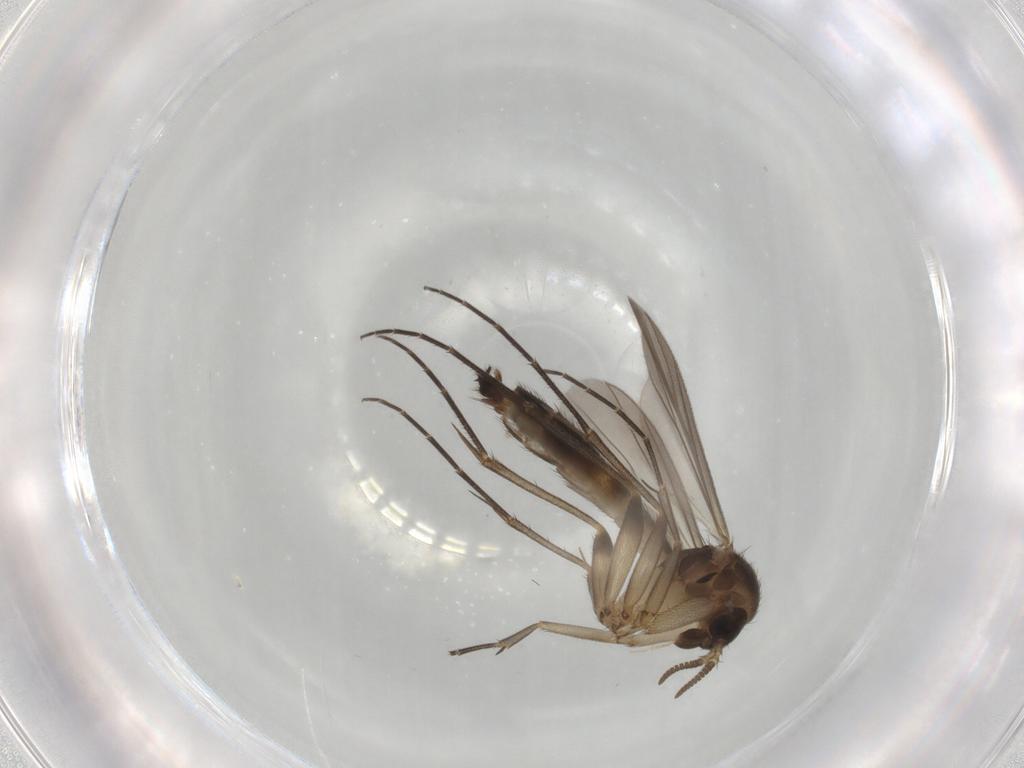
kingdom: Animalia
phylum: Arthropoda
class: Insecta
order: Diptera
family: Mycetophilidae
